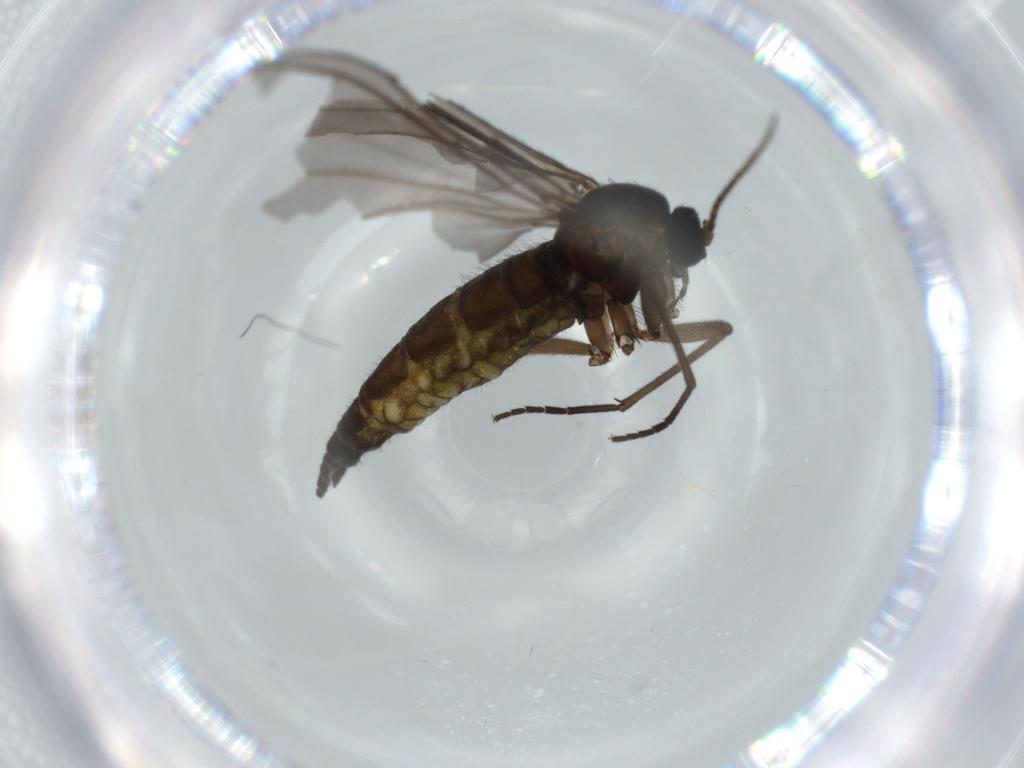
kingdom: Animalia
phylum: Arthropoda
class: Insecta
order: Diptera
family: Sciaridae
